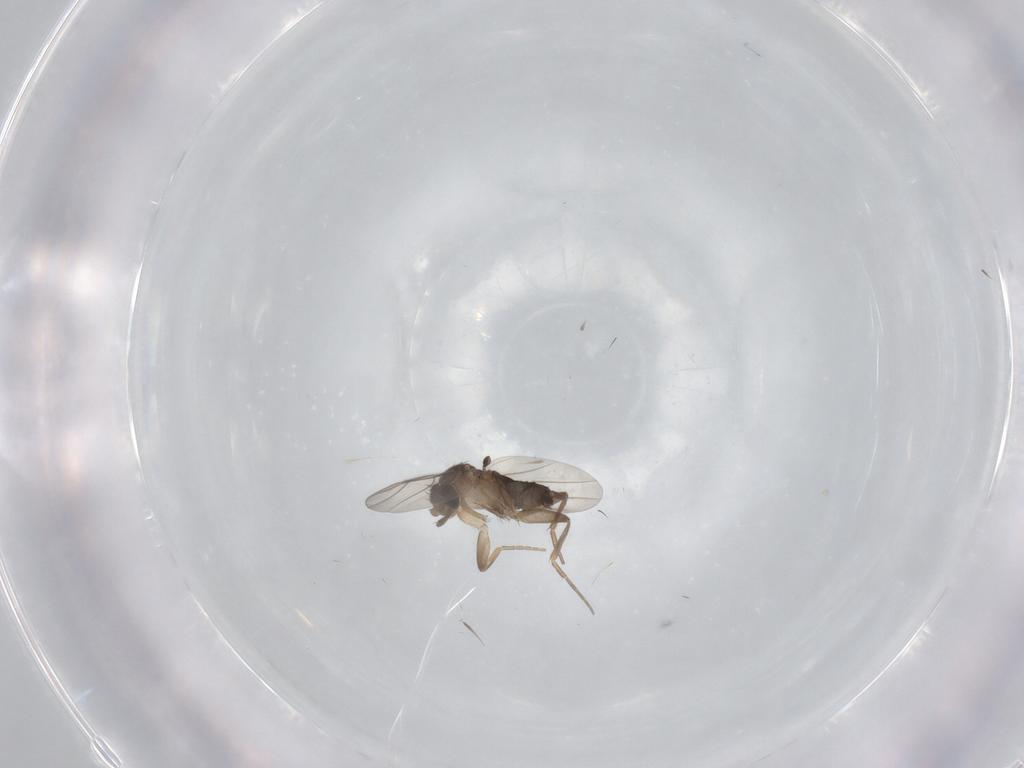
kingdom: Animalia
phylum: Arthropoda
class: Insecta
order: Diptera
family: Phoridae
